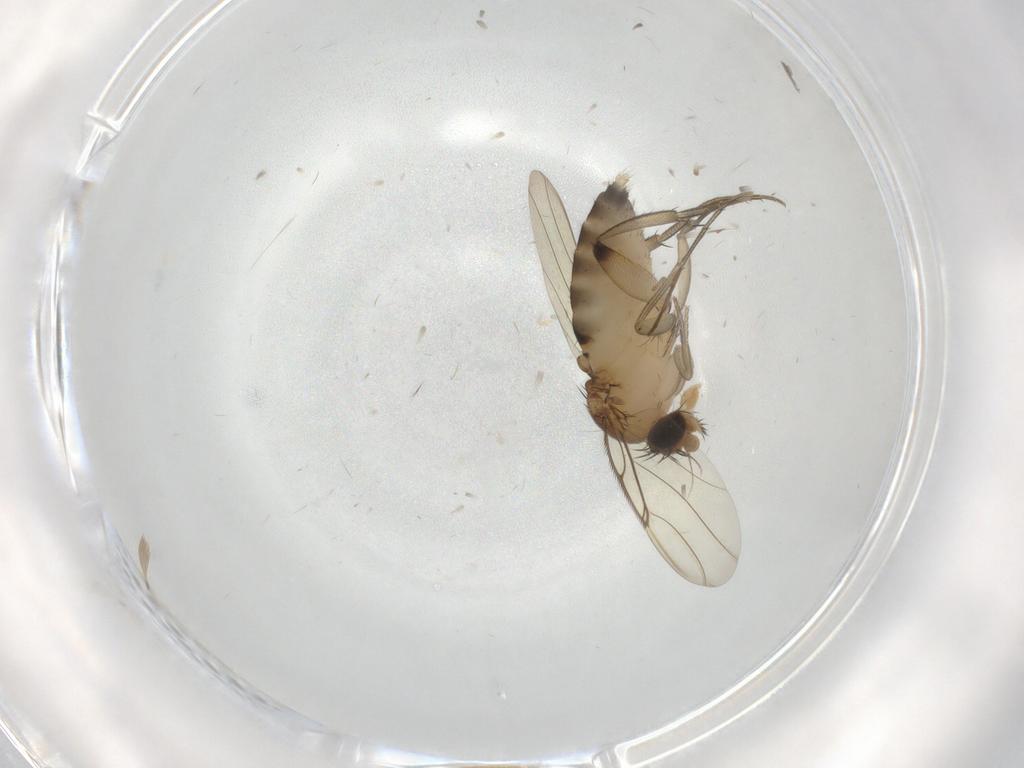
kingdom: Animalia
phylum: Arthropoda
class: Insecta
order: Diptera
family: Phoridae
